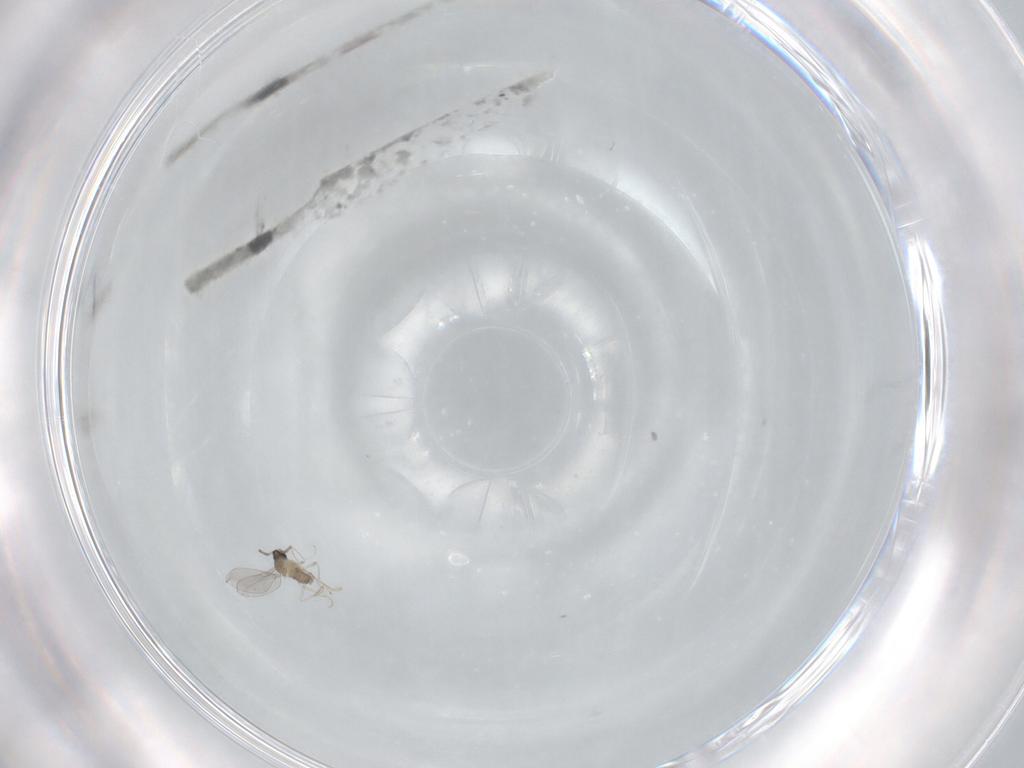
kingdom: Animalia
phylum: Arthropoda
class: Insecta
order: Diptera
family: Cecidomyiidae
